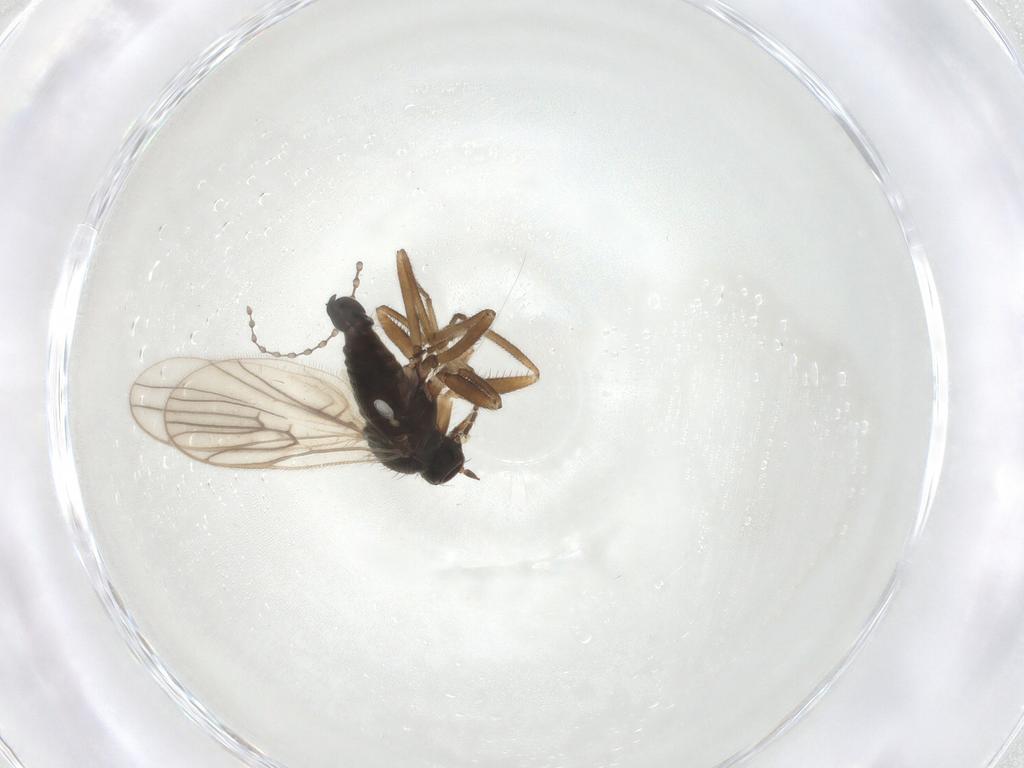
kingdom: Animalia
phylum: Arthropoda
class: Insecta
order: Diptera
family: Hybotidae
